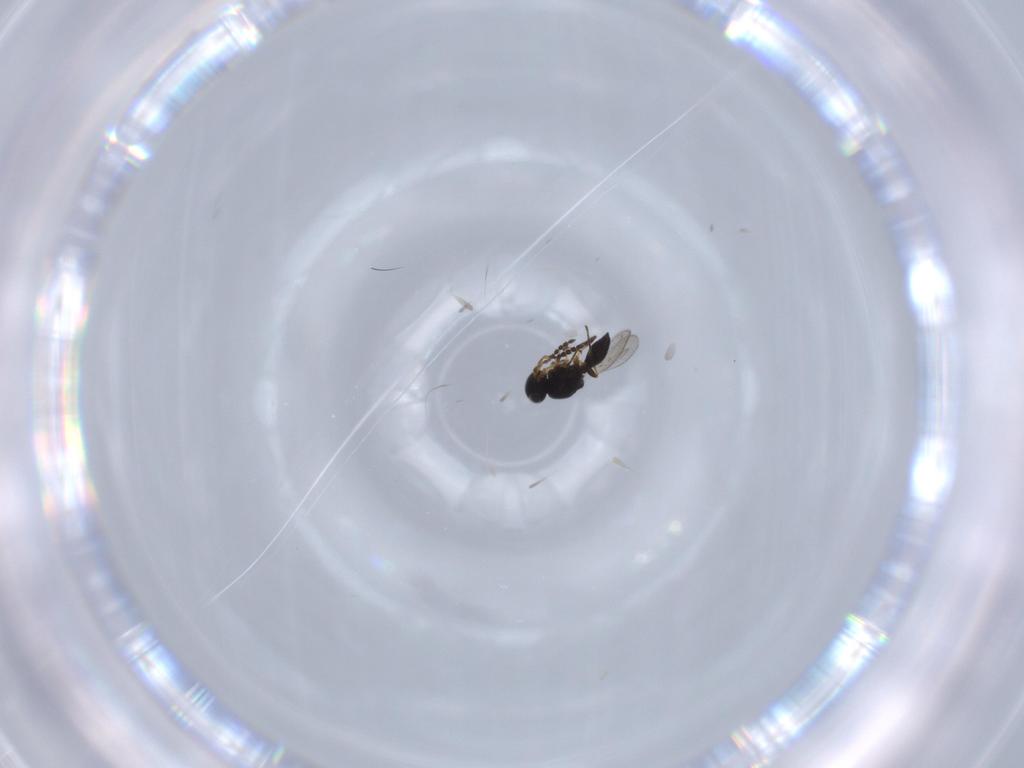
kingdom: Animalia
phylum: Arthropoda
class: Insecta
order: Hymenoptera
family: Platygastridae
